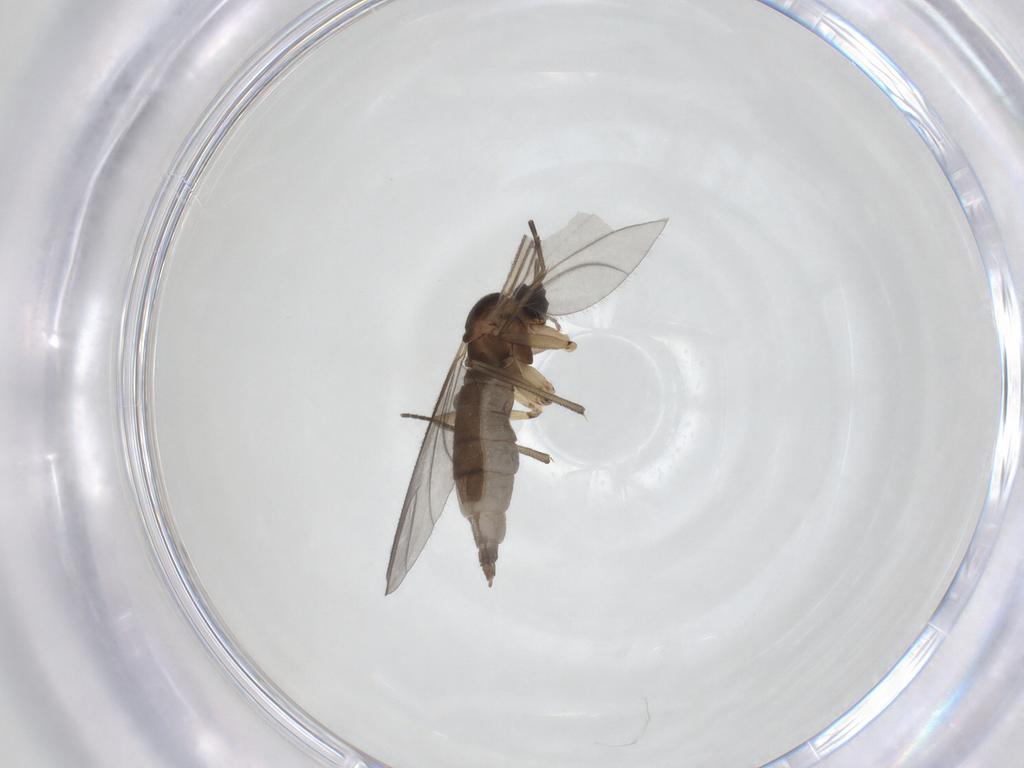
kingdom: Animalia
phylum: Arthropoda
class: Insecta
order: Diptera
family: Sciaridae
